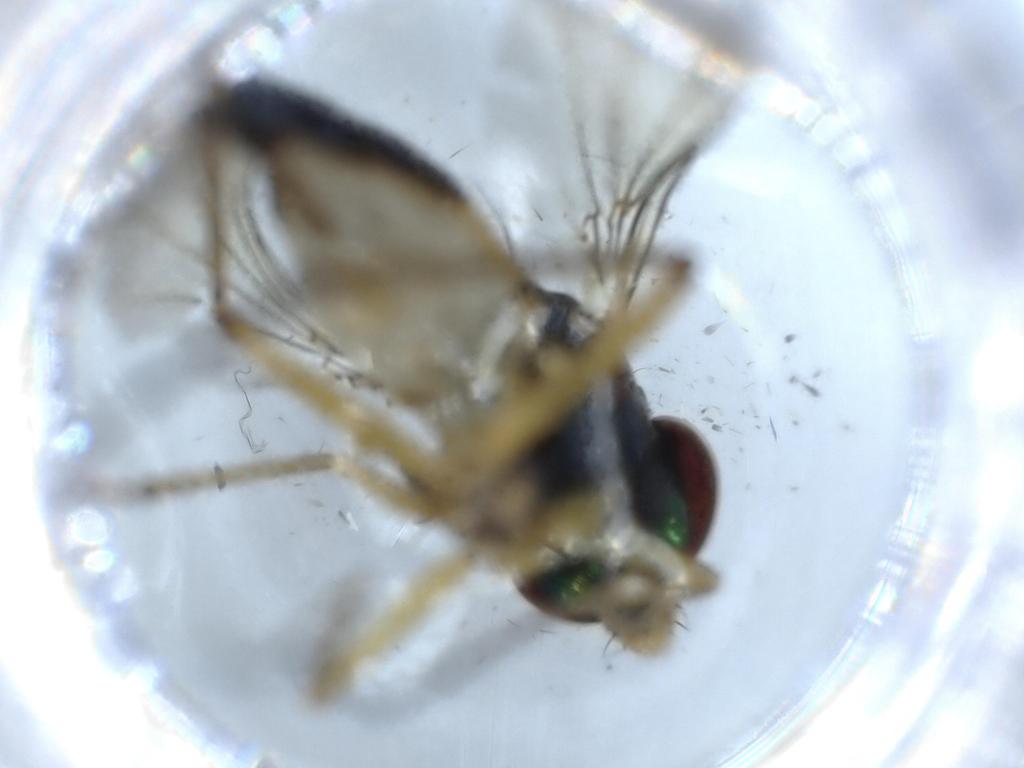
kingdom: Animalia
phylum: Arthropoda
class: Insecta
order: Diptera
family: Dolichopodidae
